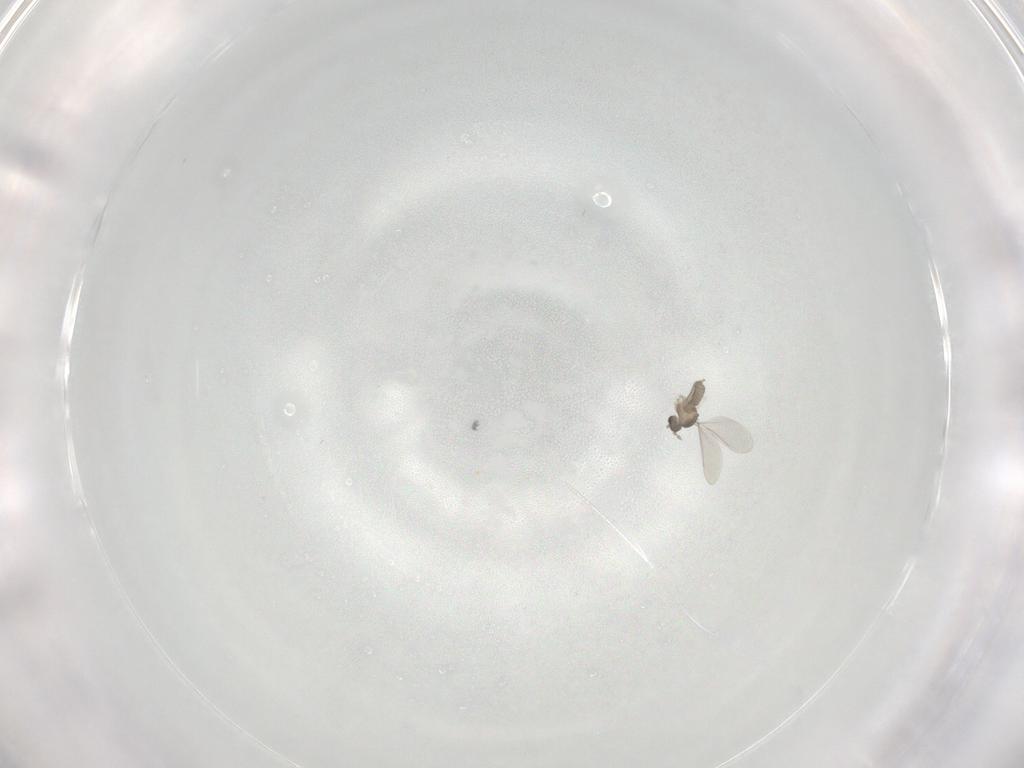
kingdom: Animalia
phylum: Arthropoda
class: Insecta
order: Diptera
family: Cecidomyiidae
